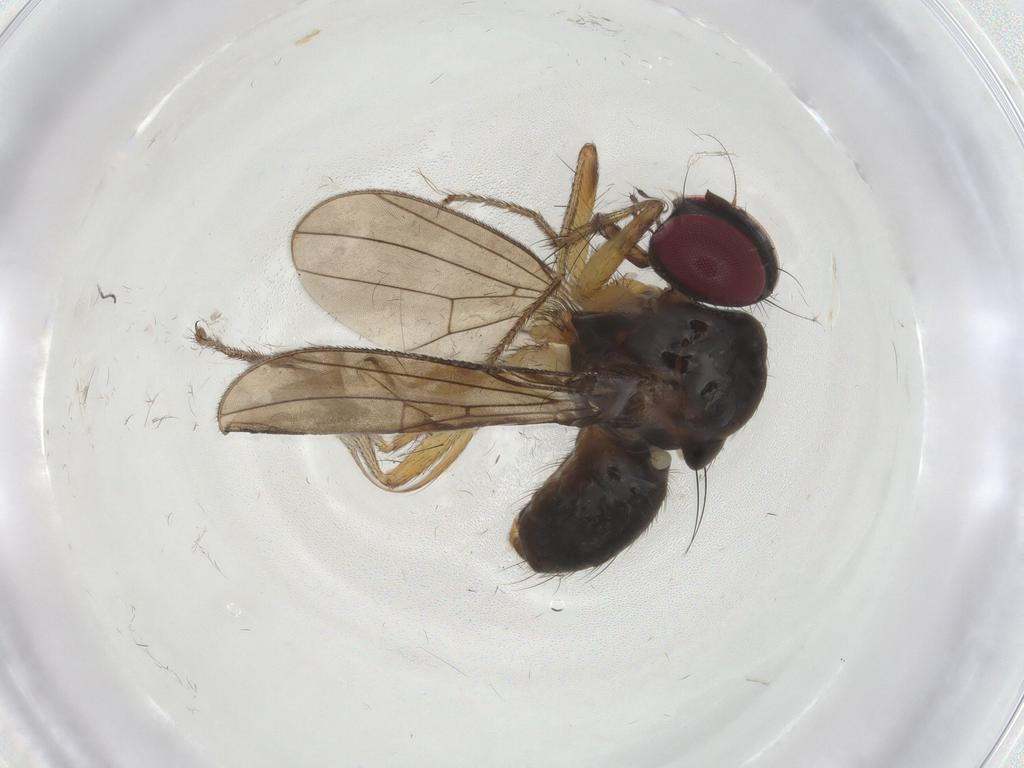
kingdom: Animalia
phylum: Arthropoda
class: Insecta
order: Diptera
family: Anthomyiidae
